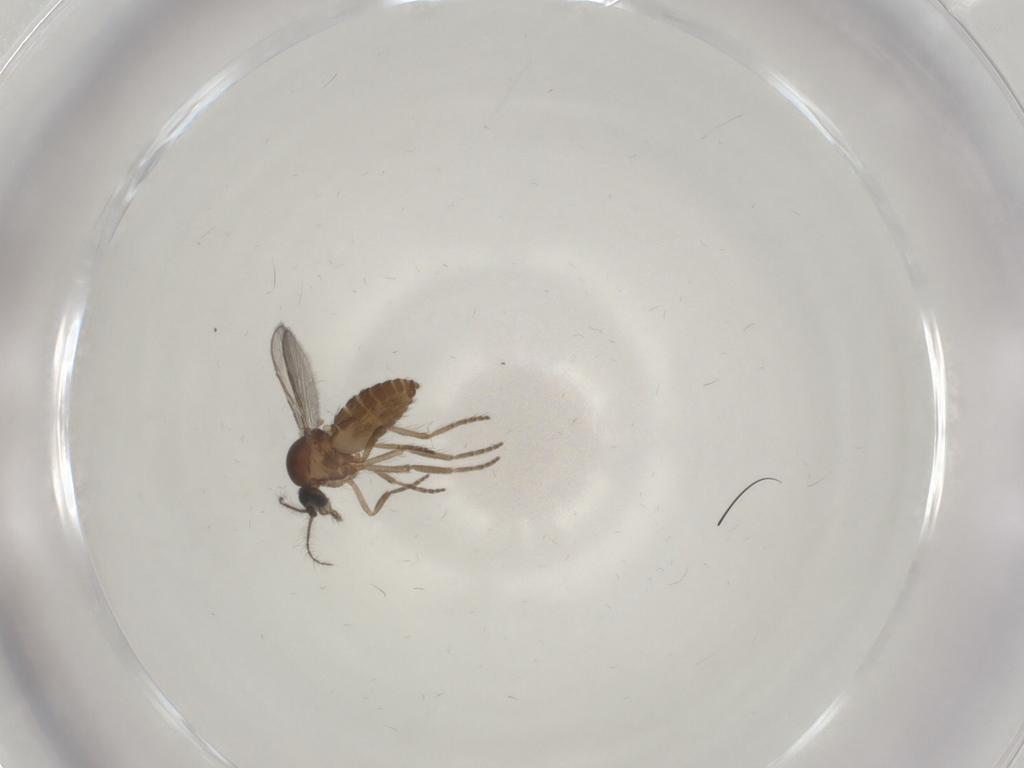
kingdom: Animalia
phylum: Arthropoda
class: Insecta
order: Diptera
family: Ceratopogonidae
